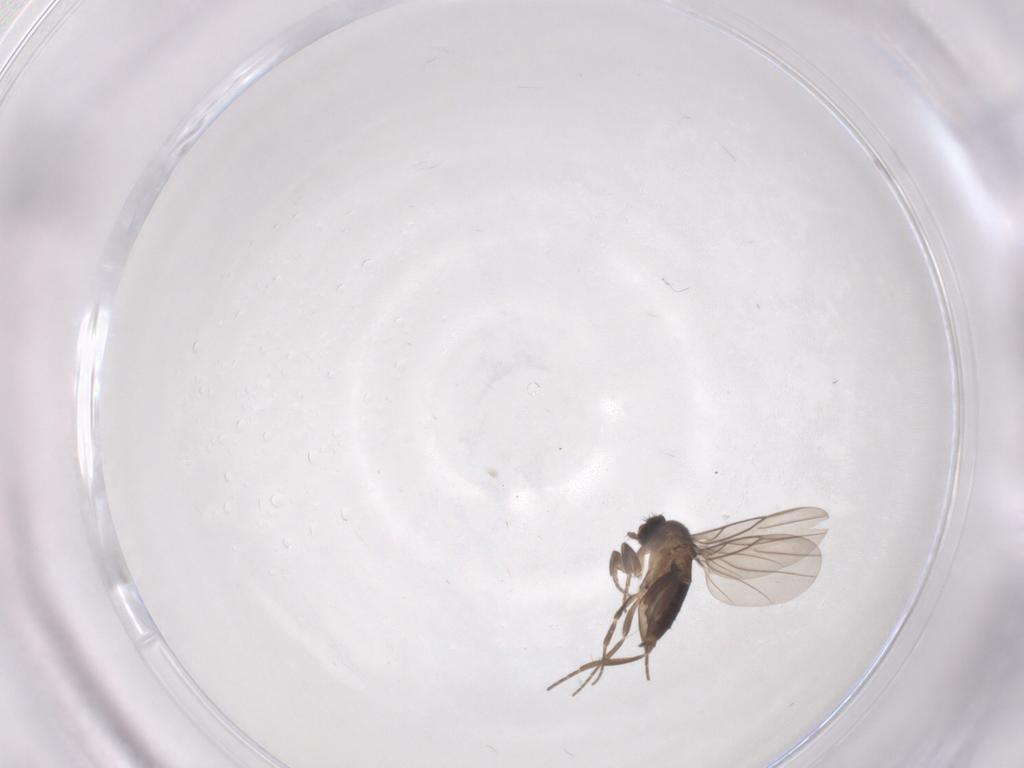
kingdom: Animalia
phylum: Arthropoda
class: Insecta
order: Diptera
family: Phoridae
